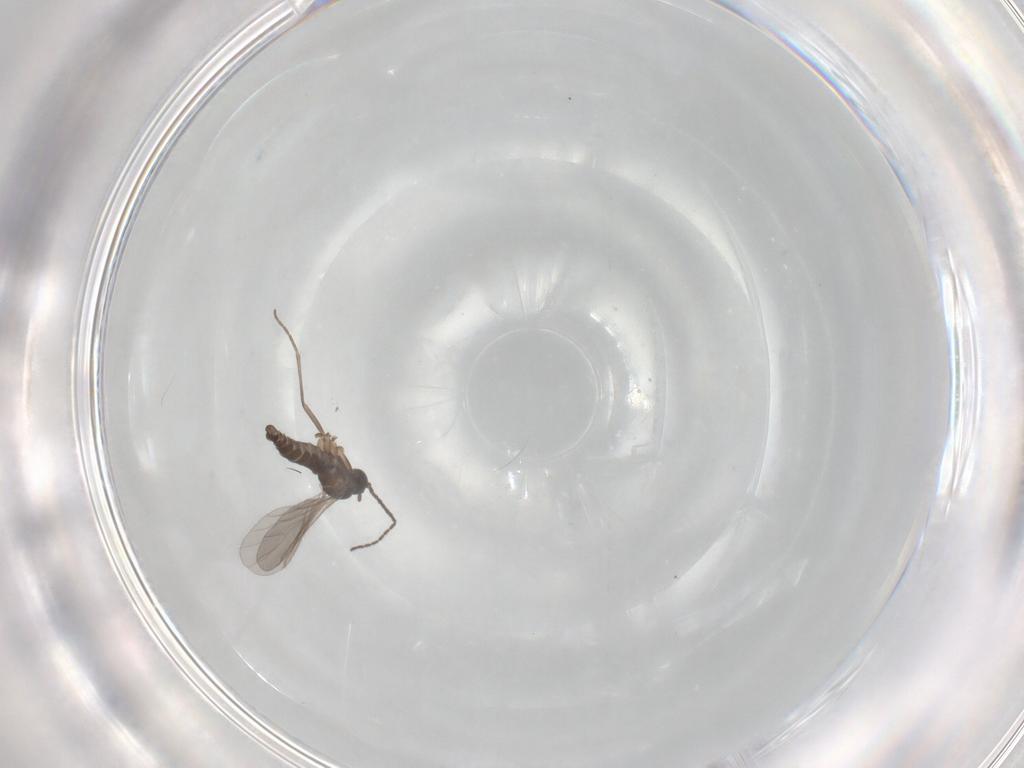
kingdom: Animalia
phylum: Arthropoda
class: Insecta
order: Diptera
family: Sciaridae
